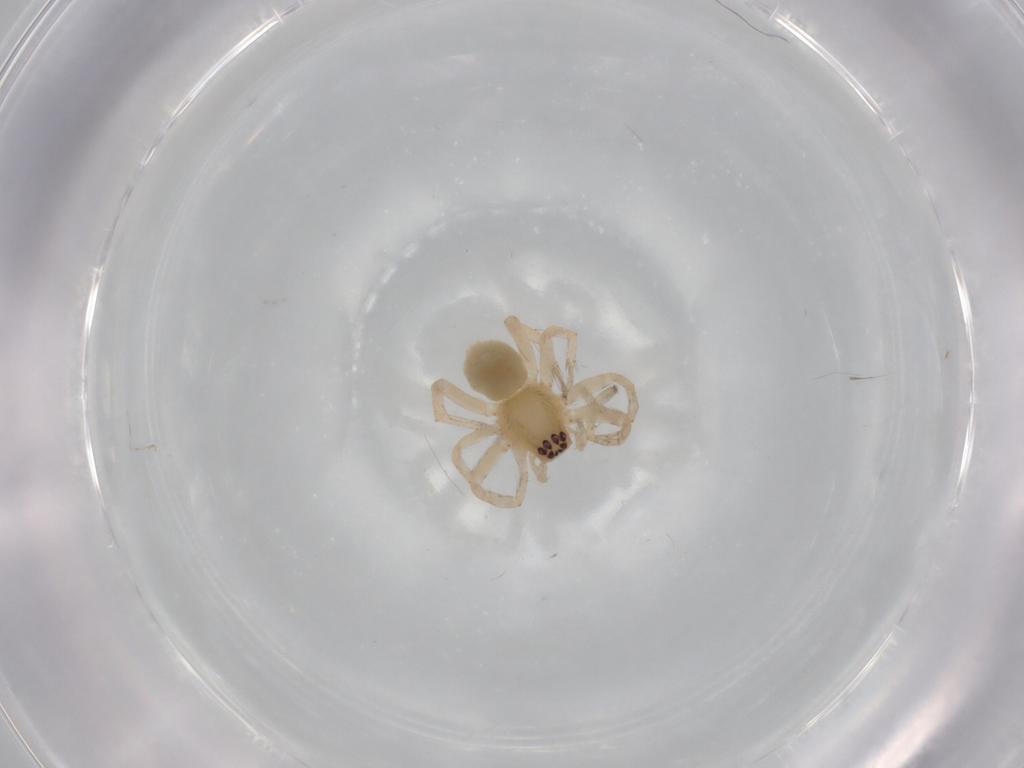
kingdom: Animalia
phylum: Arthropoda
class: Arachnida
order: Araneae
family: Anyphaenidae
